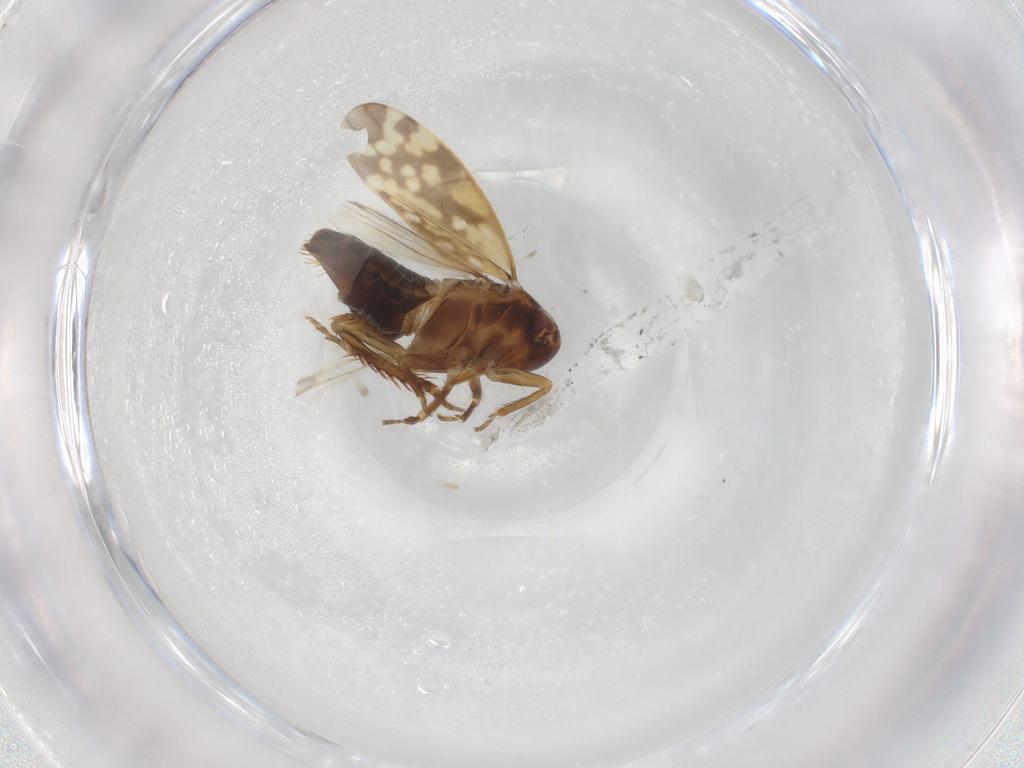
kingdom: Animalia
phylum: Arthropoda
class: Insecta
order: Hemiptera
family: Cicadellidae
